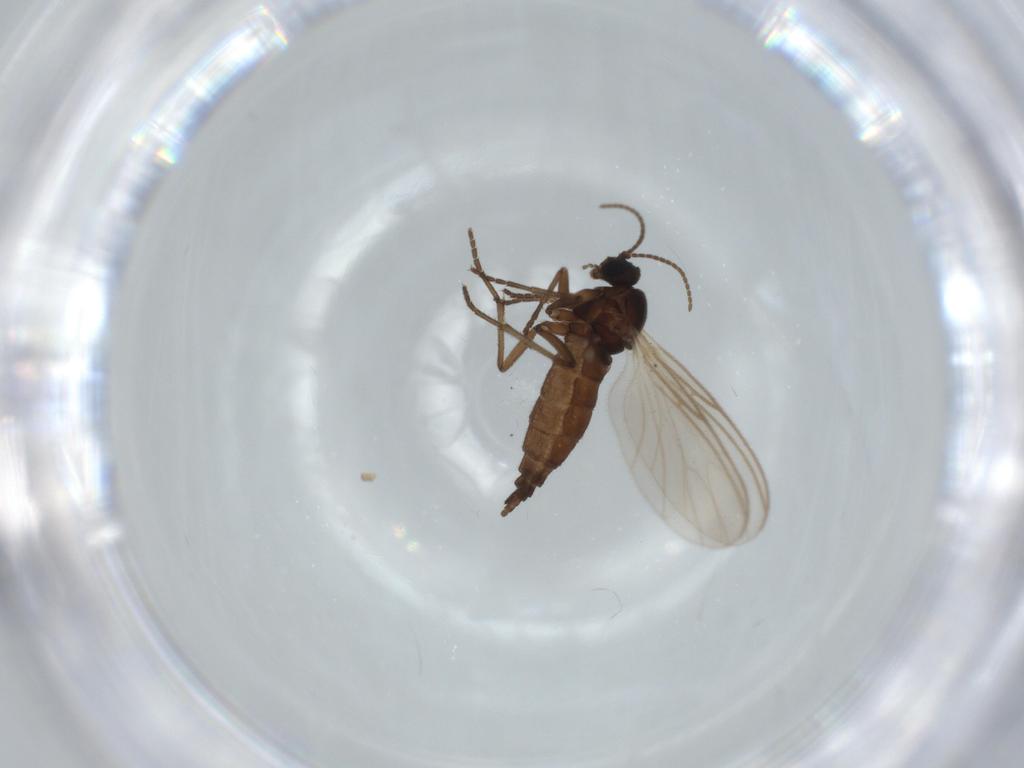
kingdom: Animalia
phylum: Arthropoda
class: Insecta
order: Diptera
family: Sciaridae
